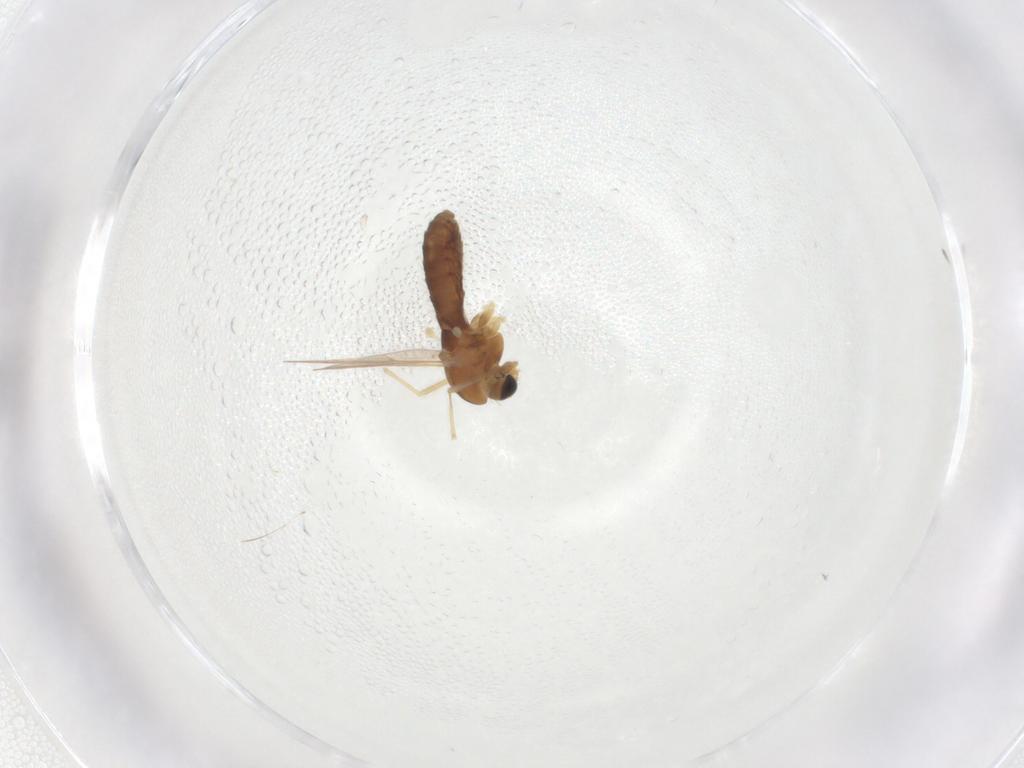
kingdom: Animalia
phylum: Arthropoda
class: Insecta
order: Diptera
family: Chironomidae
